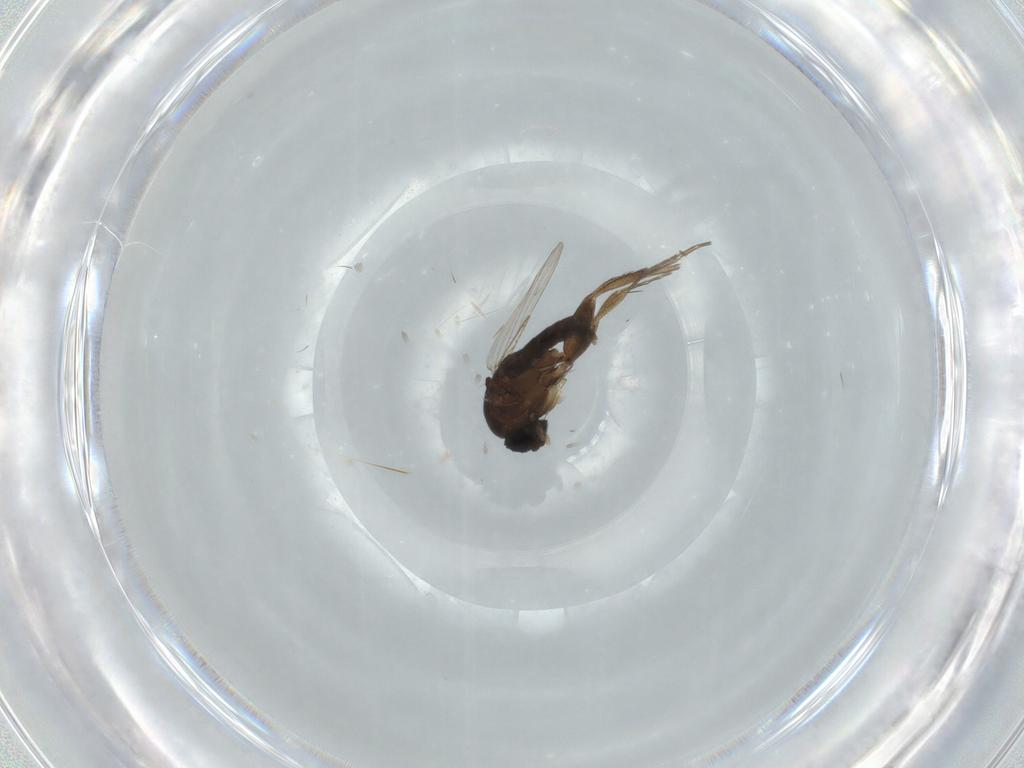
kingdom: Animalia
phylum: Arthropoda
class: Insecta
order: Diptera
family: Phoridae
